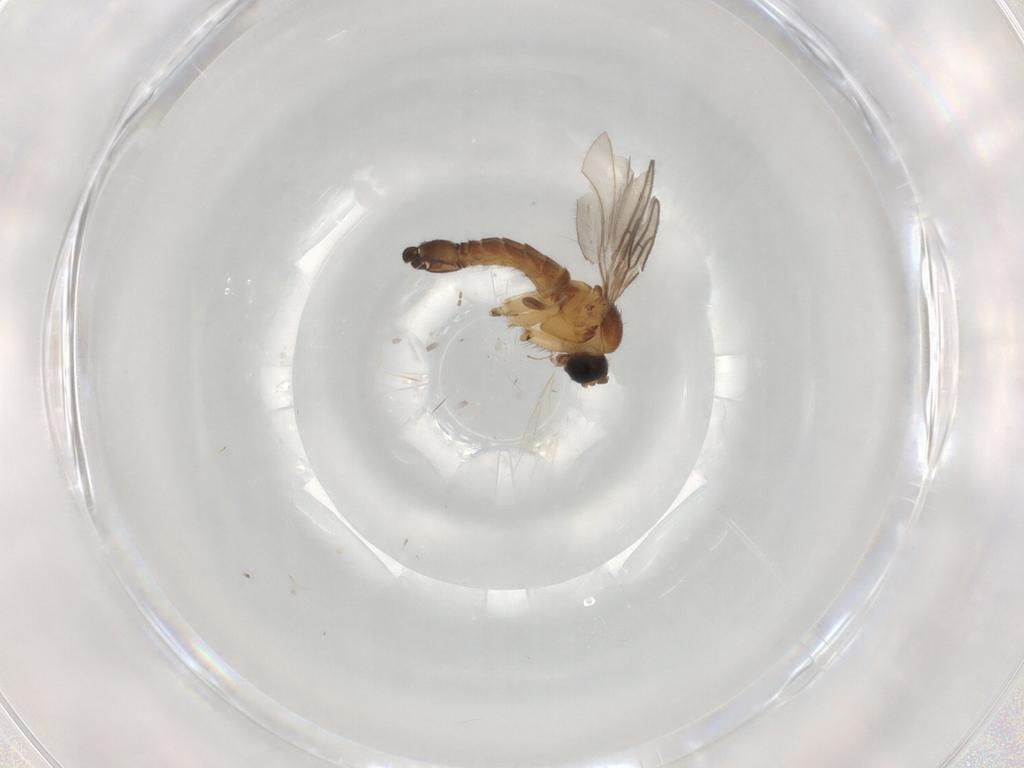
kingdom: Animalia
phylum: Arthropoda
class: Insecta
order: Diptera
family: Sciaridae
